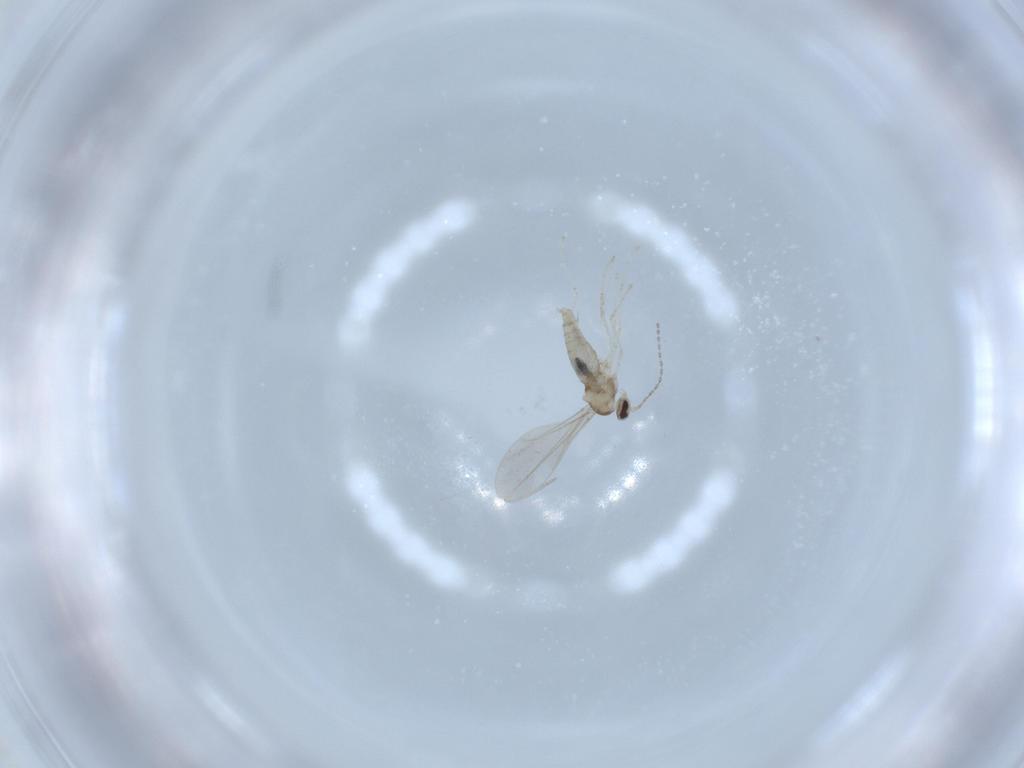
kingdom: Animalia
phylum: Arthropoda
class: Insecta
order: Diptera
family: Cecidomyiidae
